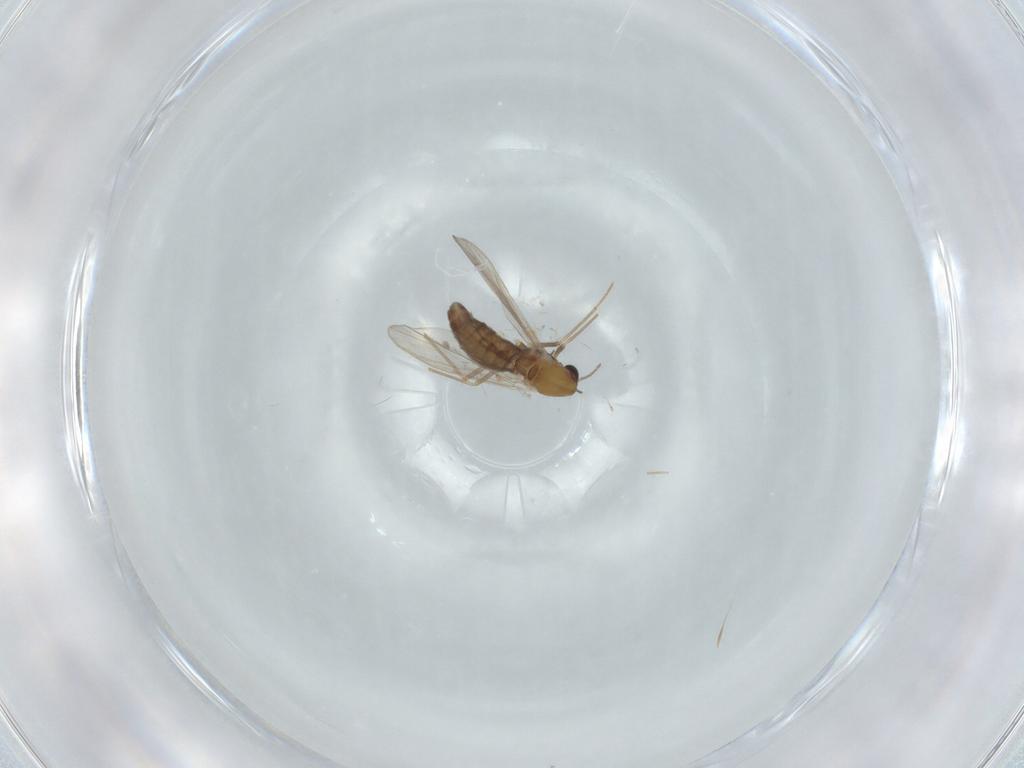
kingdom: Animalia
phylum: Arthropoda
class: Insecta
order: Diptera
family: Chironomidae
